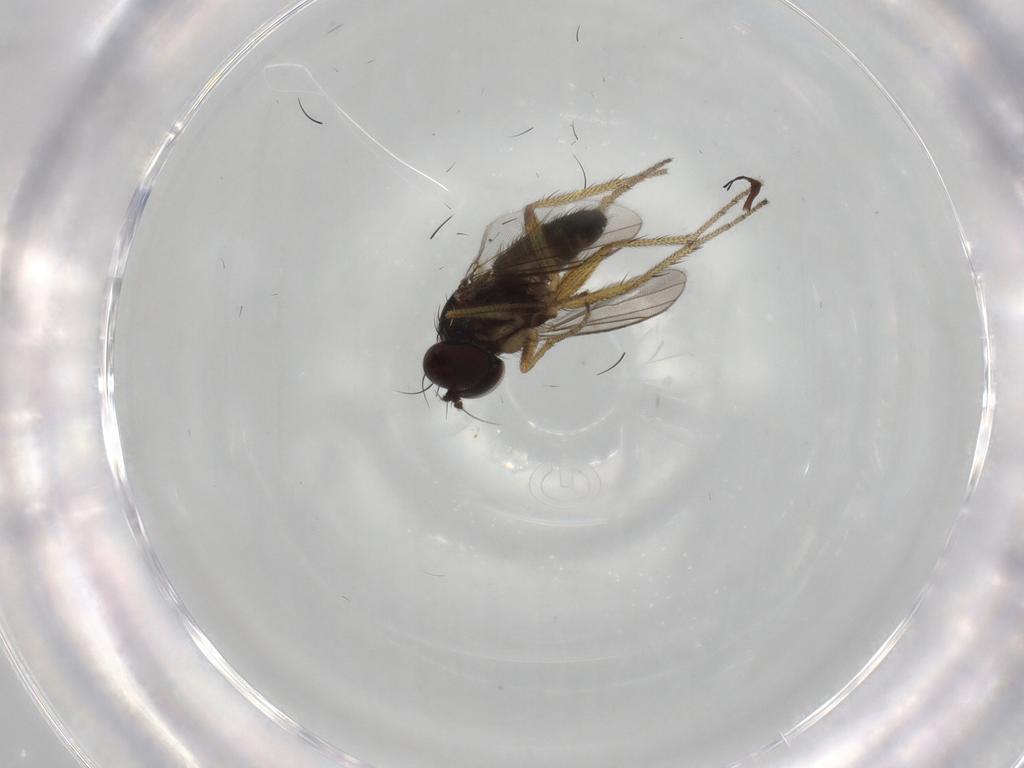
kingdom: Animalia
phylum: Arthropoda
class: Insecta
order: Diptera
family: Dolichopodidae
